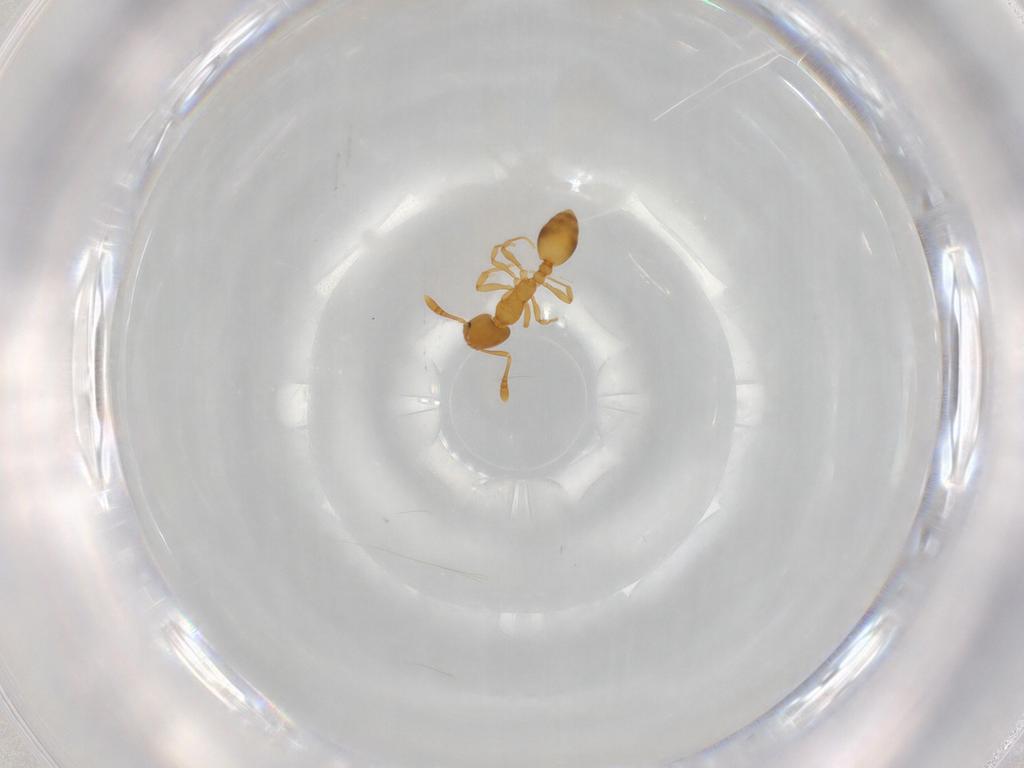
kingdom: Animalia
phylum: Arthropoda
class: Insecta
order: Hymenoptera
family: Formicidae
